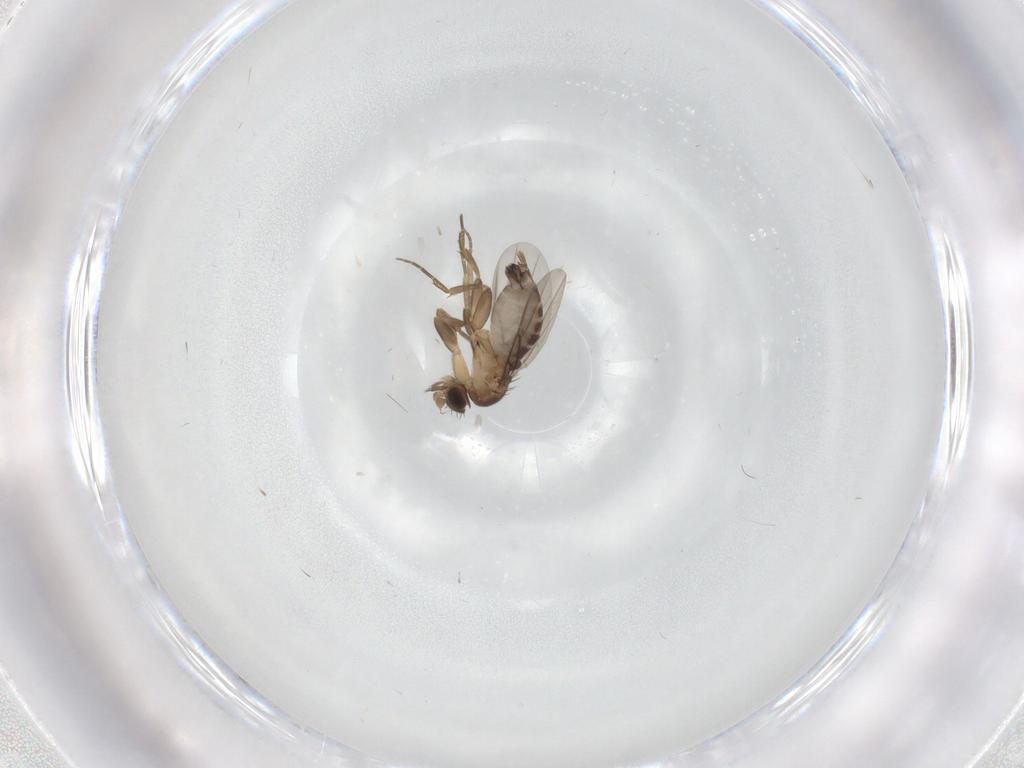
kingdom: Animalia
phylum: Arthropoda
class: Insecta
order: Diptera
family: Phoridae
